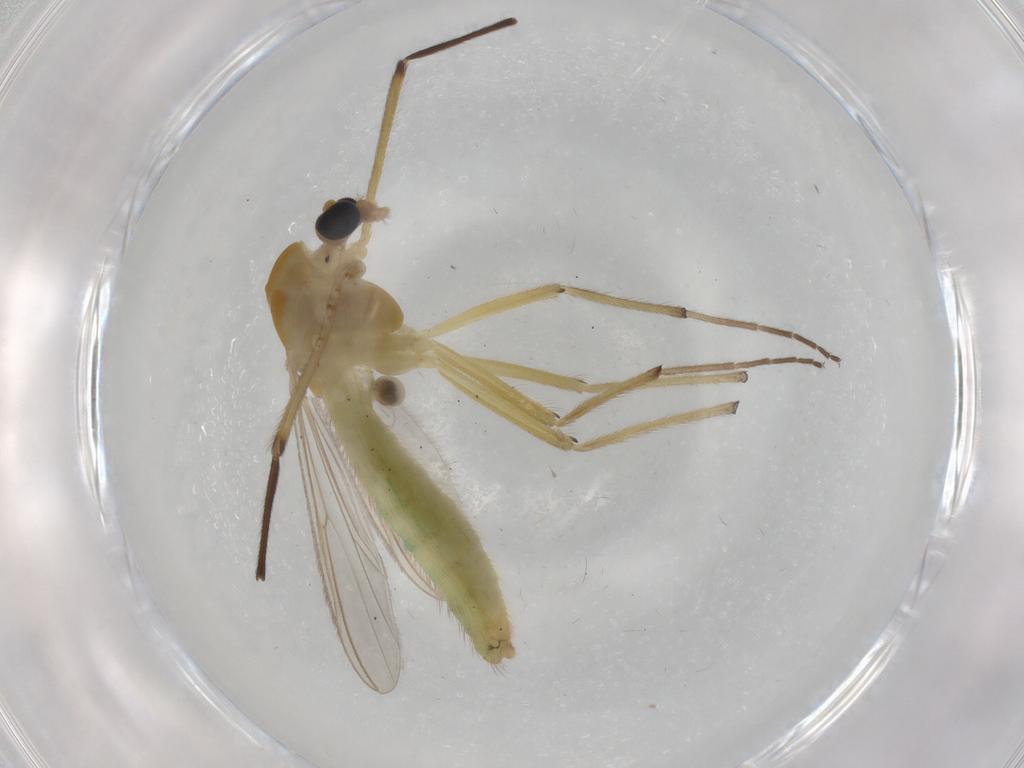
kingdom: Animalia
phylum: Arthropoda
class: Insecta
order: Diptera
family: Chironomidae
